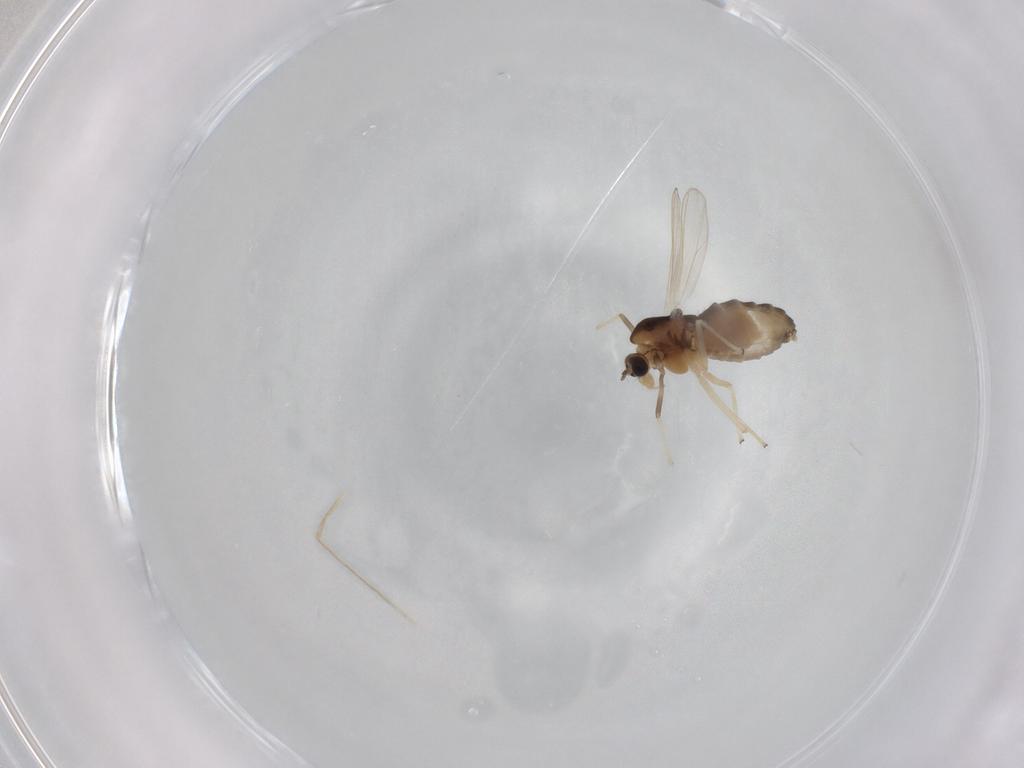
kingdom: Animalia
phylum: Arthropoda
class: Insecta
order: Diptera
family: Chironomidae
